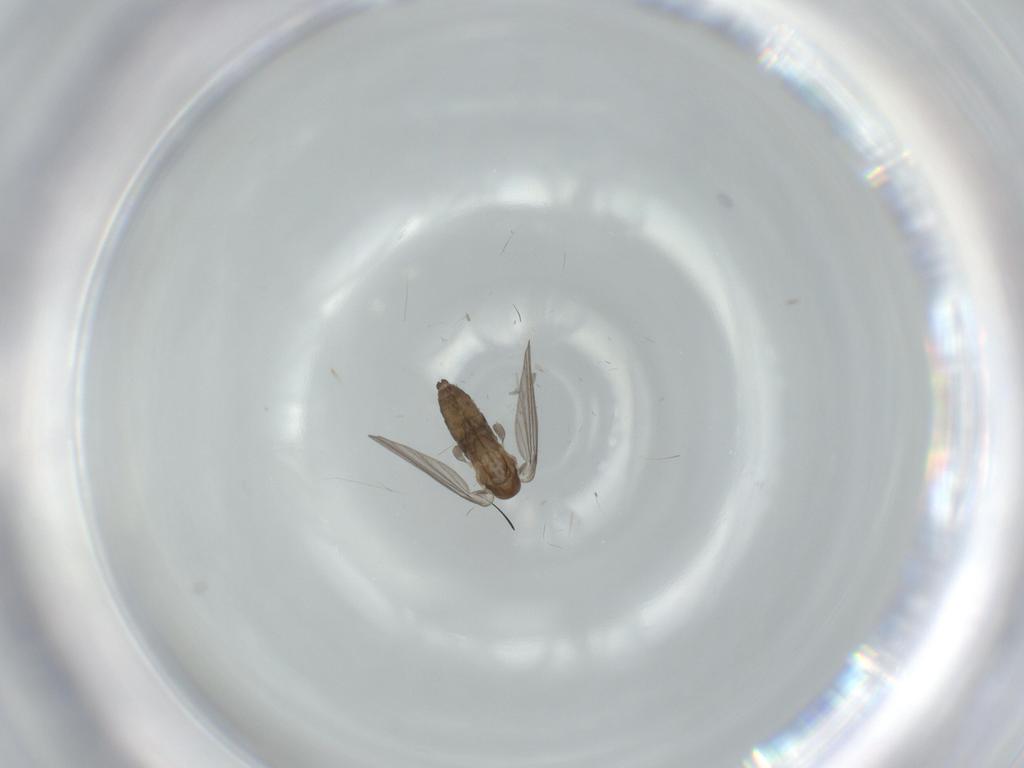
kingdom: Animalia
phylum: Arthropoda
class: Insecta
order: Diptera
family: Psychodidae
